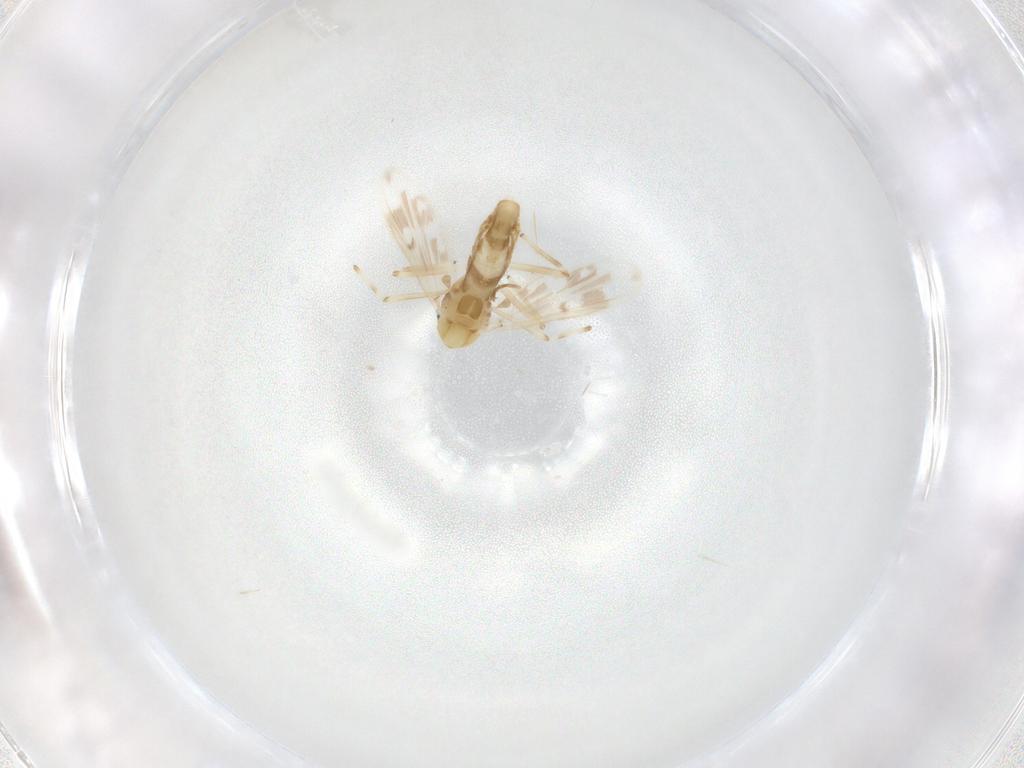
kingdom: Animalia
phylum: Arthropoda
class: Insecta
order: Diptera
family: Muscidae
